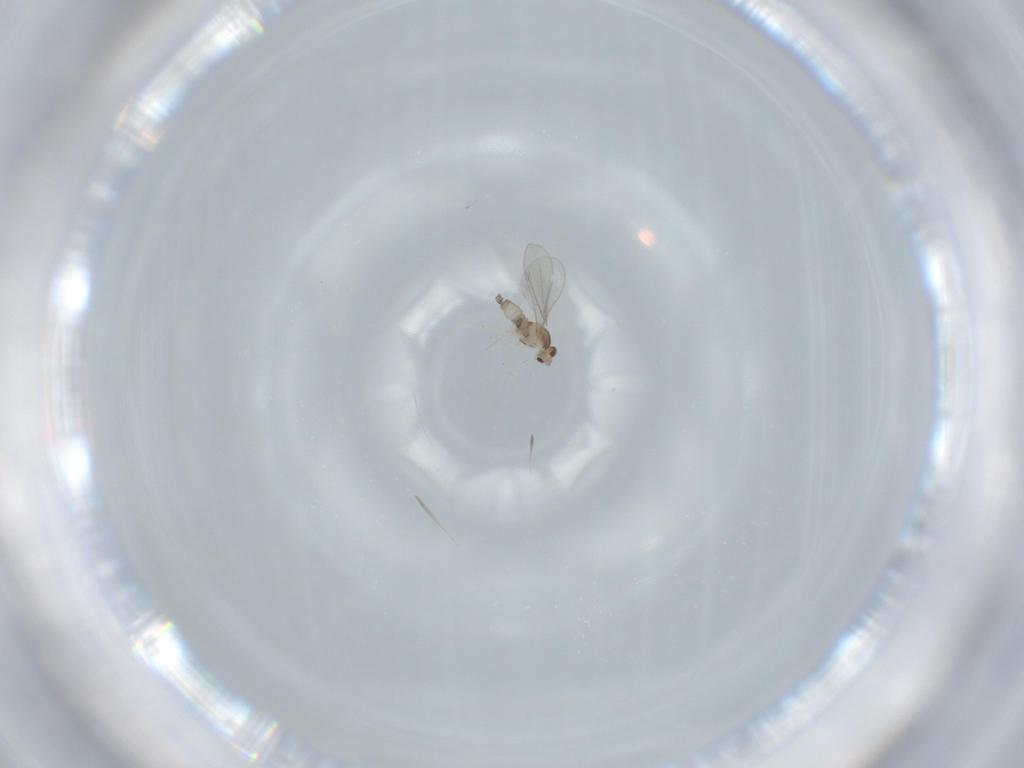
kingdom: Animalia
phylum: Arthropoda
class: Insecta
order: Diptera
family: Cecidomyiidae
